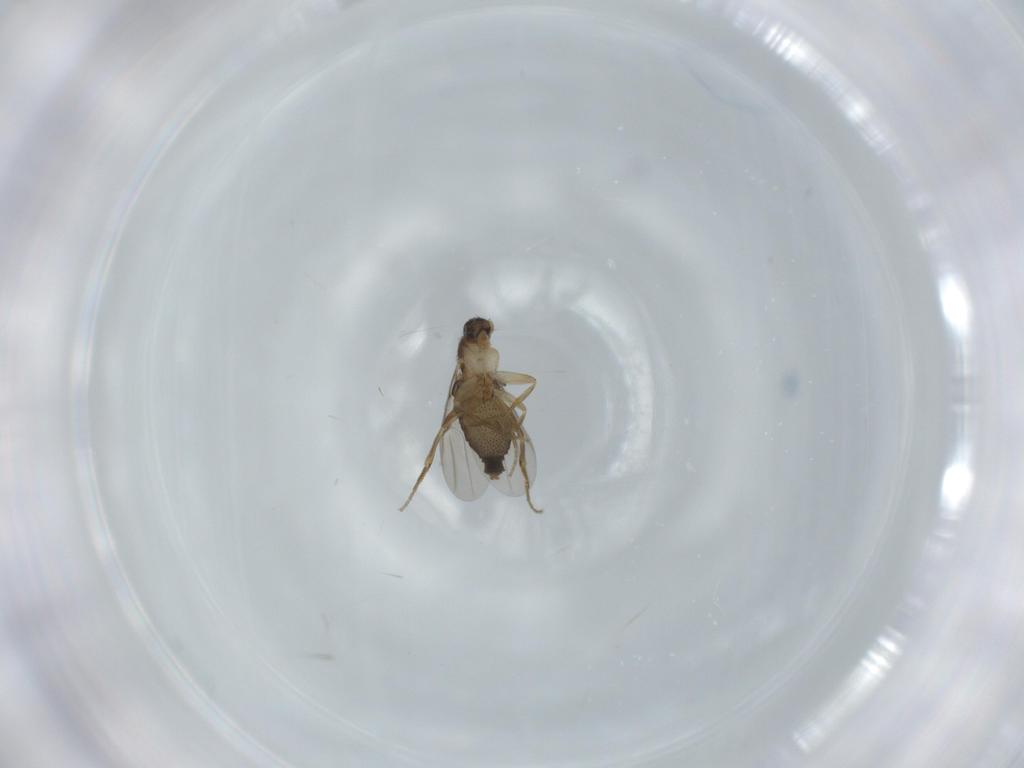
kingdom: Animalia
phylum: Arthropoda
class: Insecta
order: Diptera
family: Phoridae
